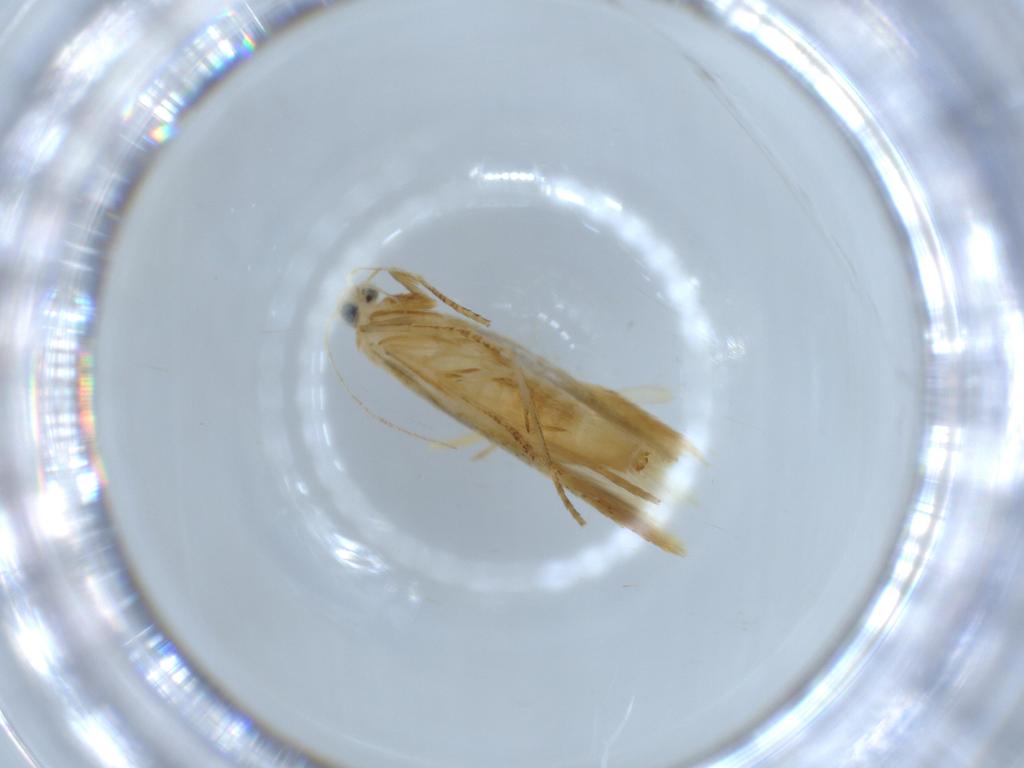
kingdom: Animalia
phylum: Arthropoda
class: Insecta
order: Lepidoptera
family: Tineidae
